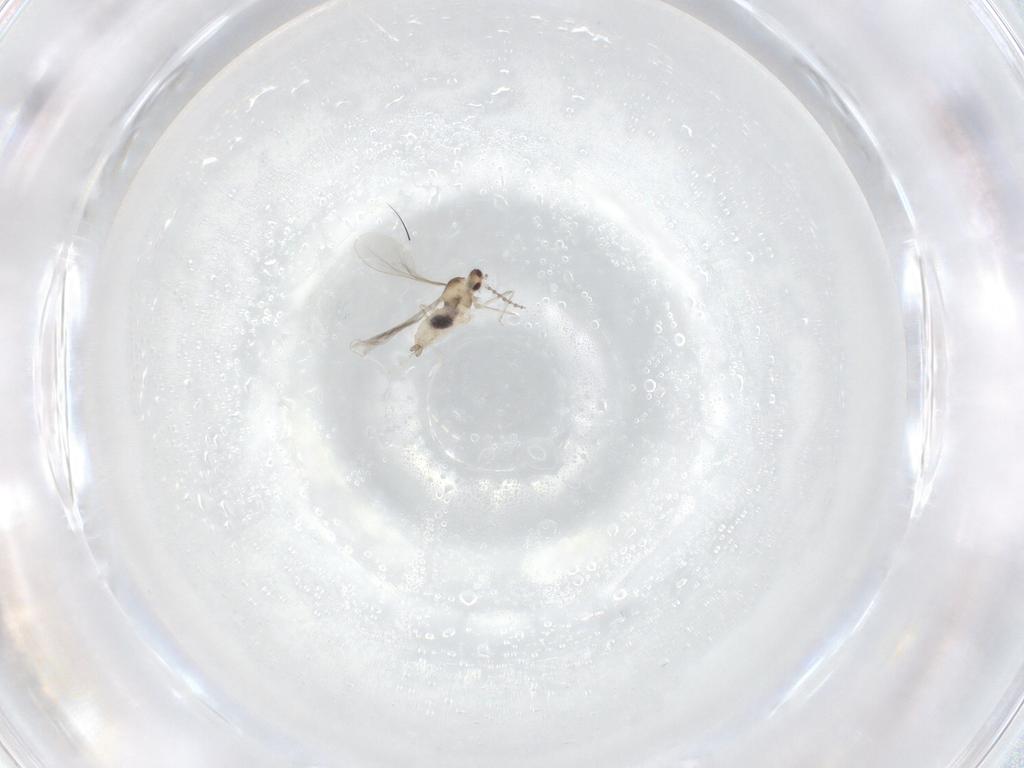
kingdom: Animalia
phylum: Arthropoda
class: Insecta
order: Diptera
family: Cecidomyiidae
